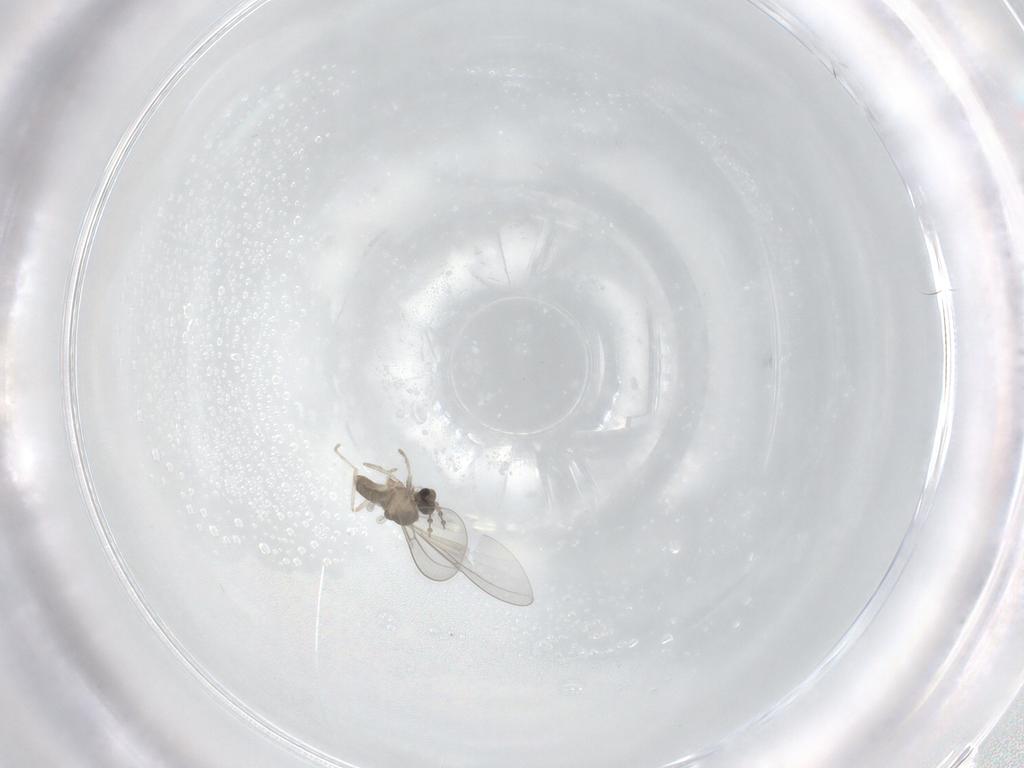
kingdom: Animalia
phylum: Arthropoda
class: Insecta
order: Diptera
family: Cecidomyiidae
